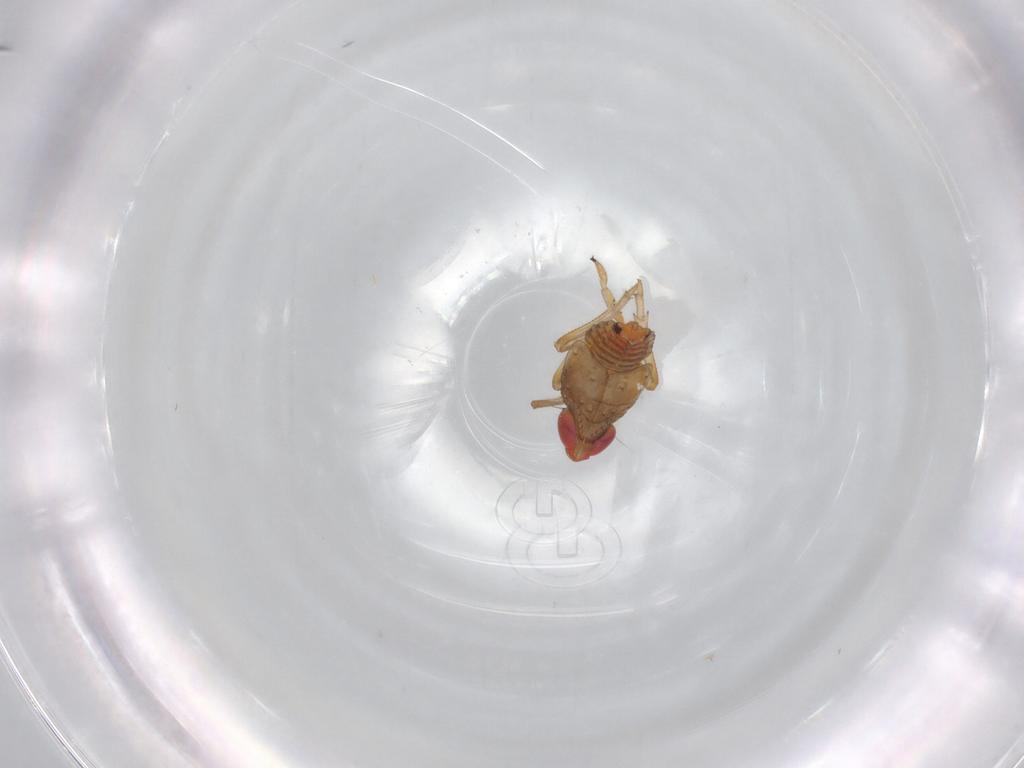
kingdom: Animalia
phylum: Arthropoda
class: Insecta
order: Hemiptera
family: Issidae
